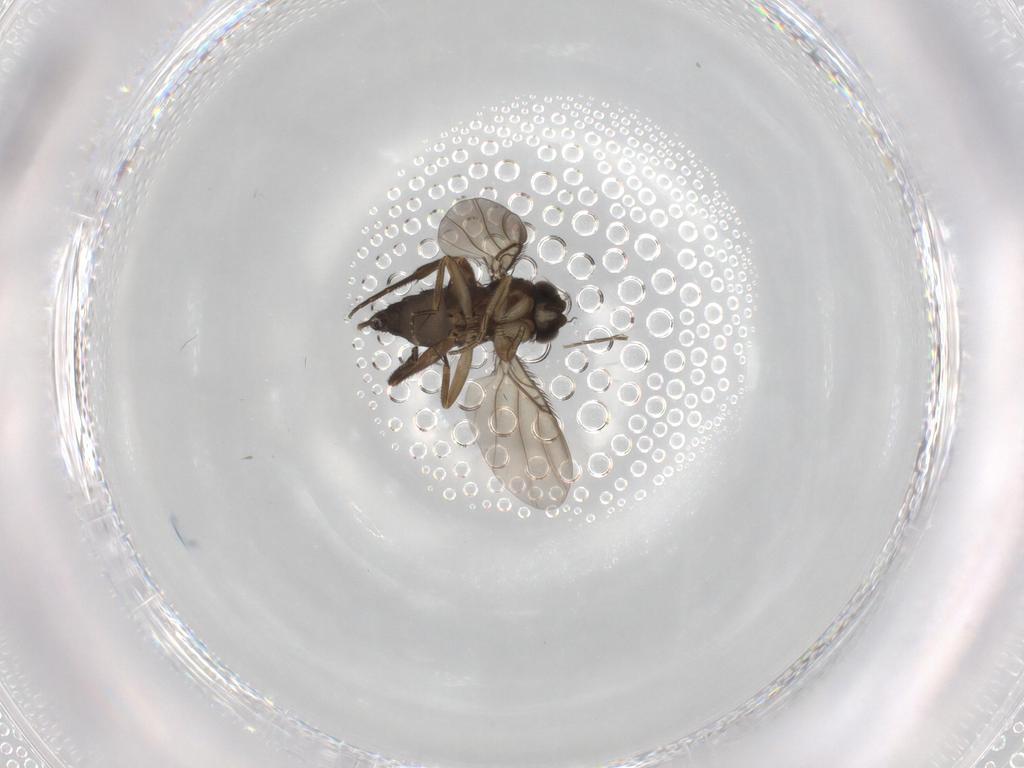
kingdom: Animalia
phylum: Arthropoda
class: Insecta
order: Diptera
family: Phoridae
